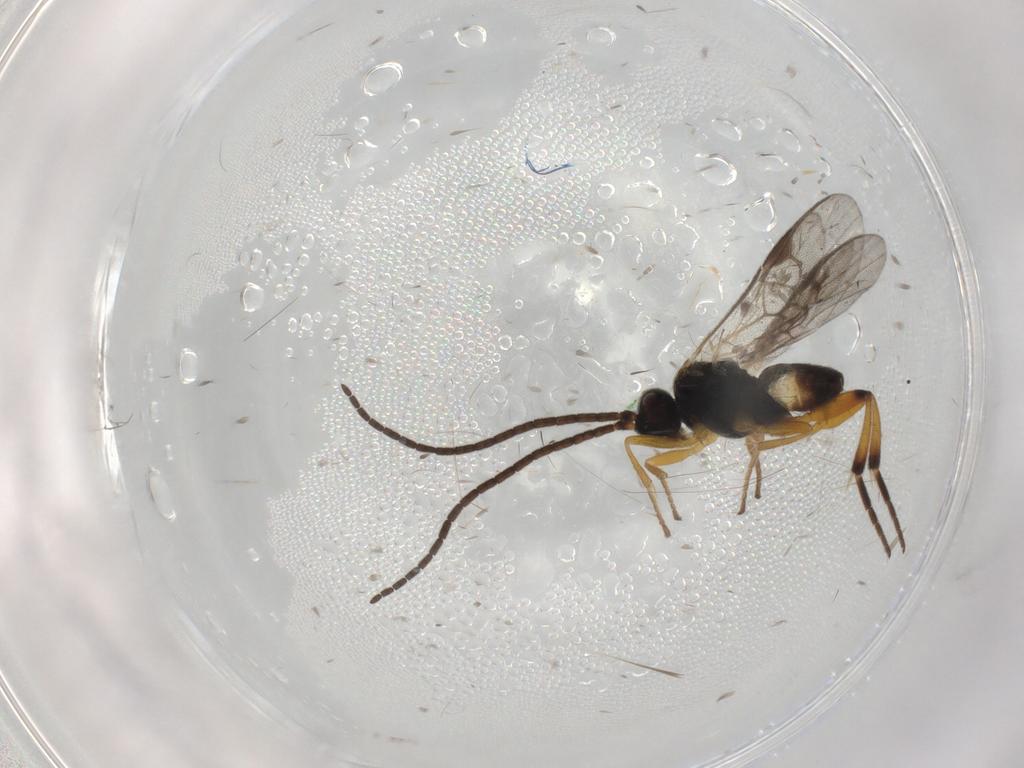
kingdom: Animalia
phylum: Arthropoda
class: Insecta
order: Hymenoptera
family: Braconidae
